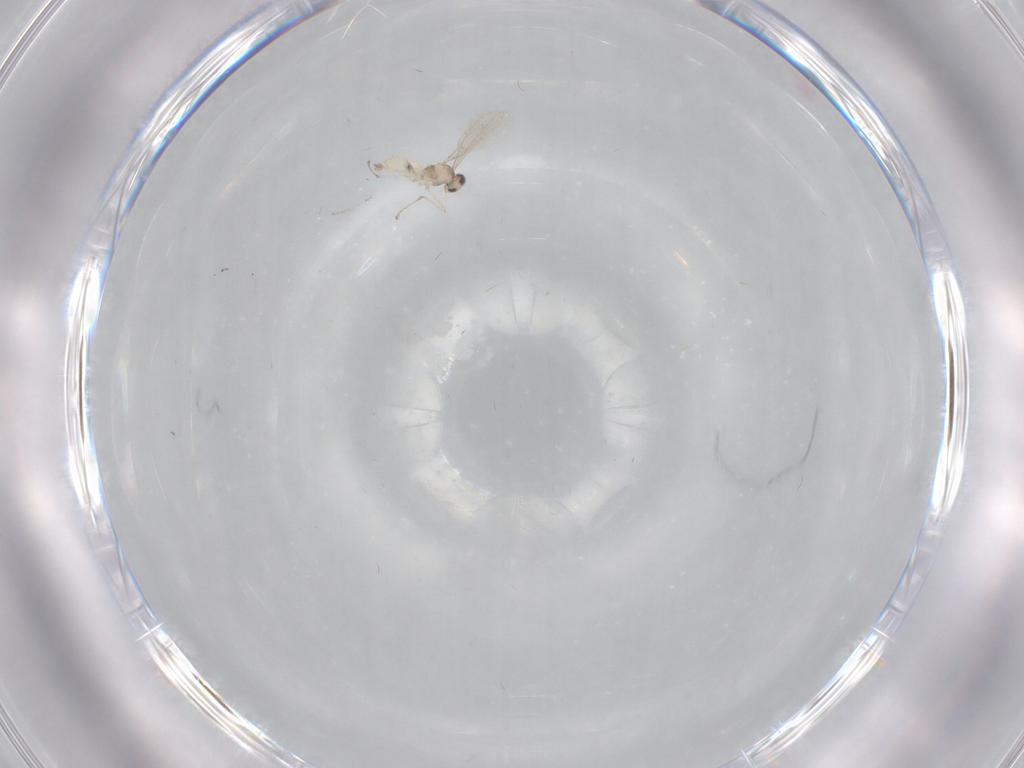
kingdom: Animalia
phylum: Arthropoda
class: Insecta
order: Diptera
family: Cecidomyiidae
